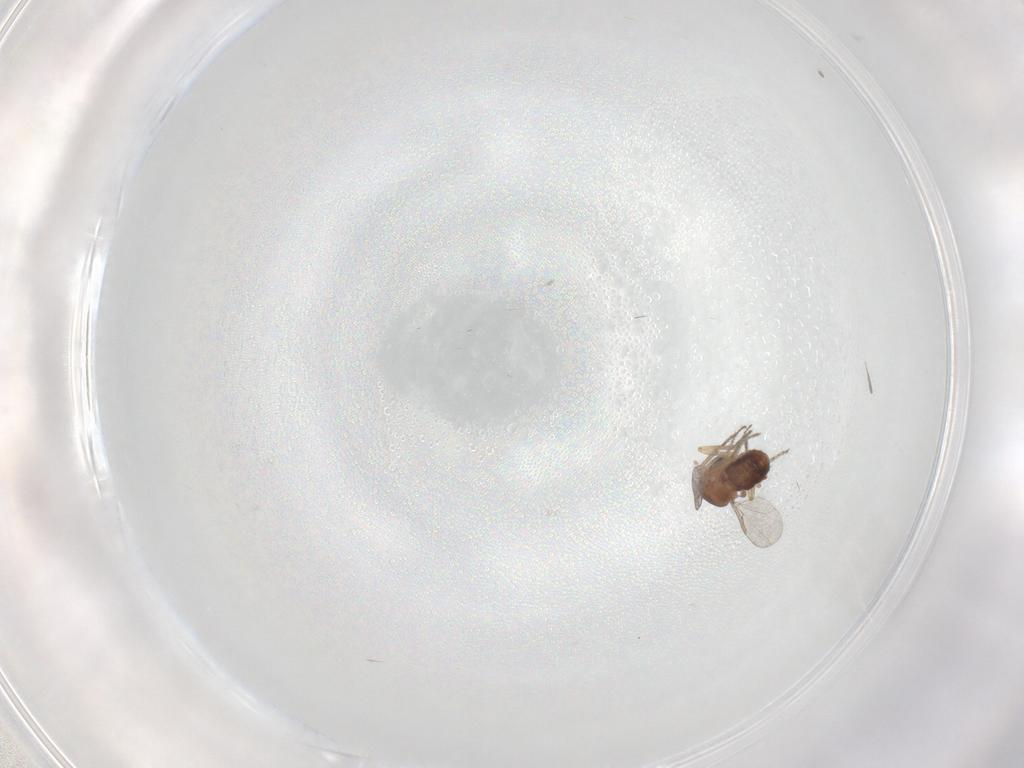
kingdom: Animalia
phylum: Arthropoda
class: Insecta
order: Diptera
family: Ceratopogonidae
